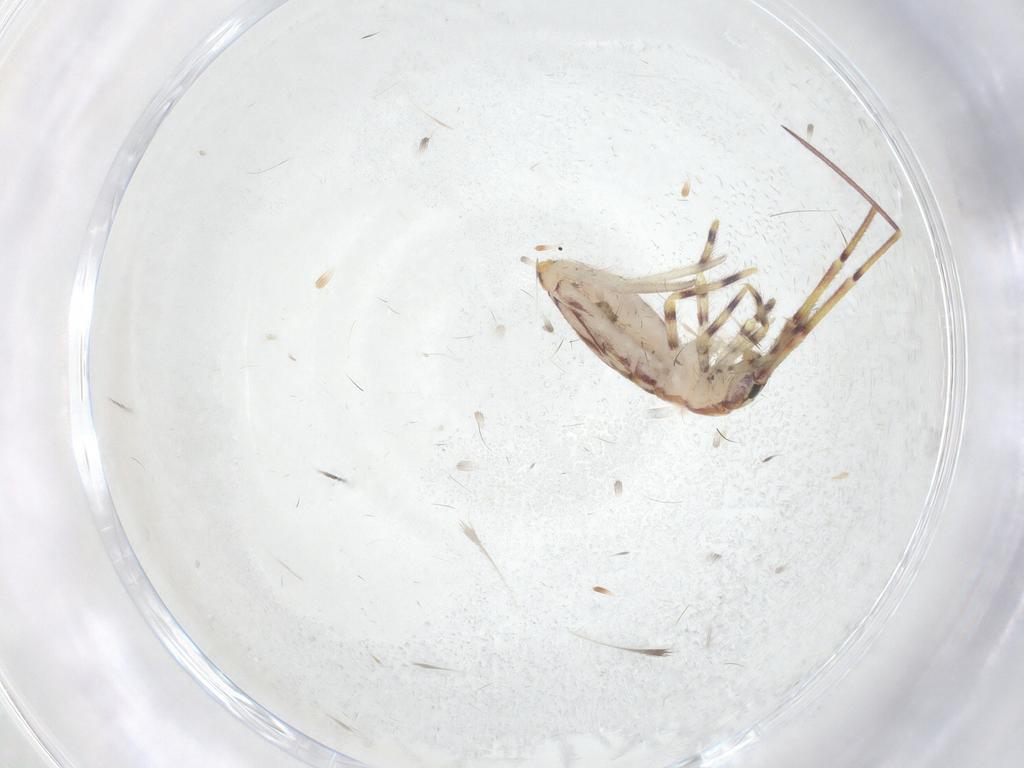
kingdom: Animalia
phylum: Arthropoda
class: Collembola
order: Entomobryomorpha
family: Entomobryidae
